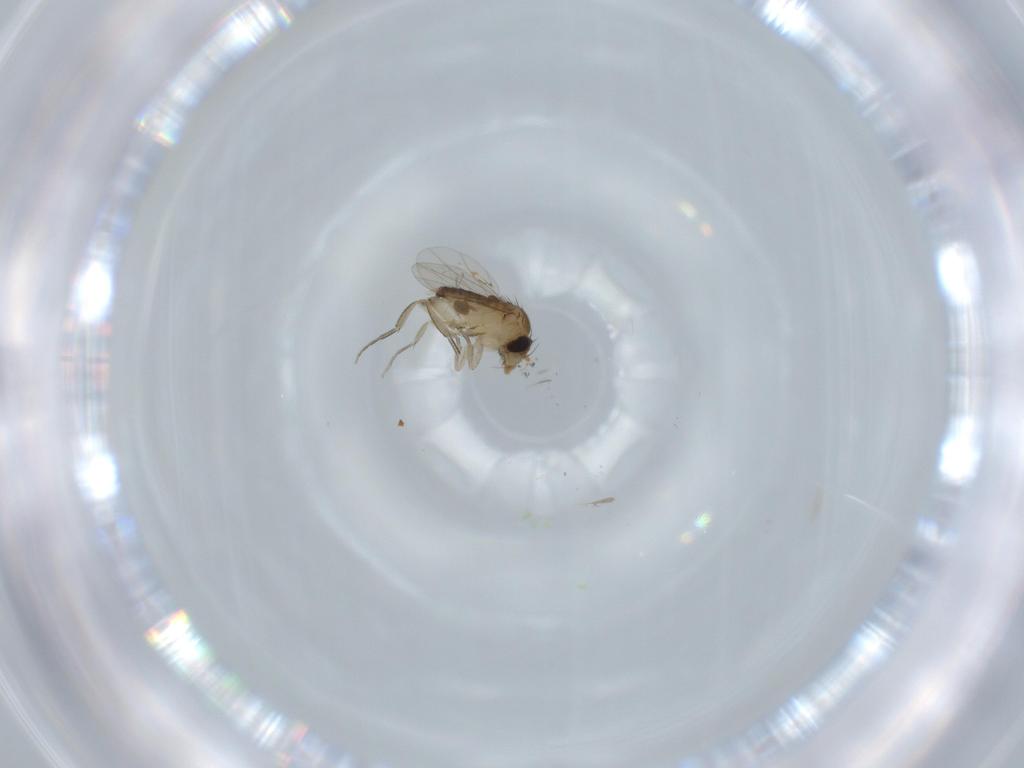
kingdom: Animalia
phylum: Arthropoda
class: Insecta
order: Diptera
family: Phoridae
